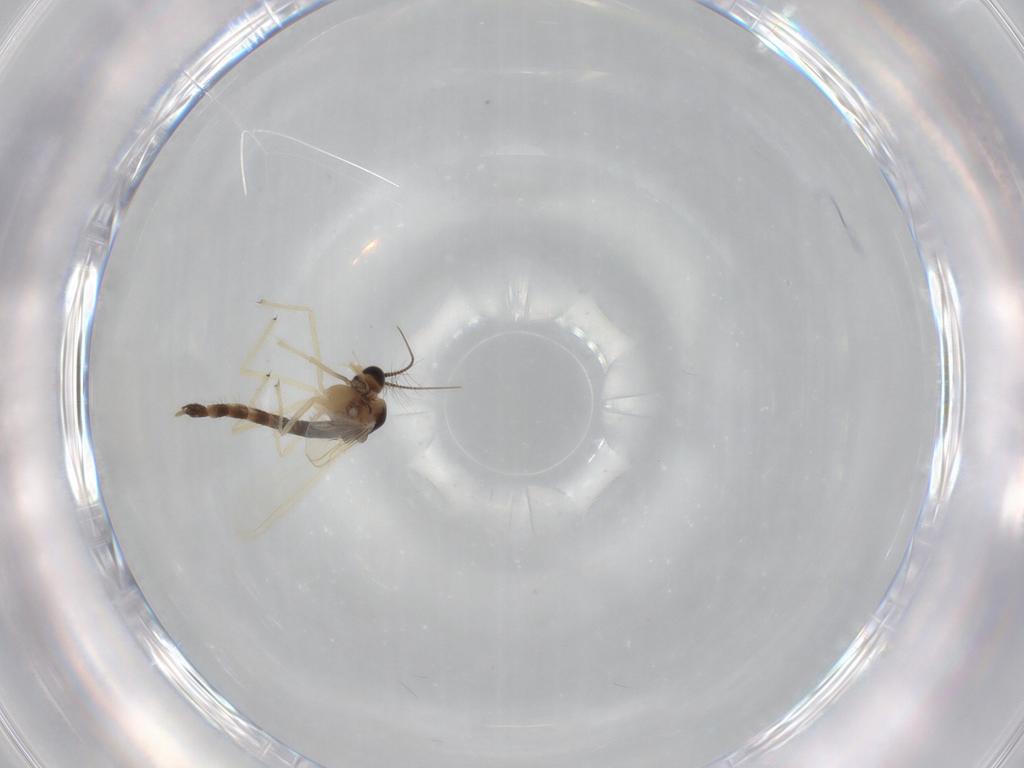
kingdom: Animalia
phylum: Arthropoda
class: Insecta
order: Diptera
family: Chironomidae
